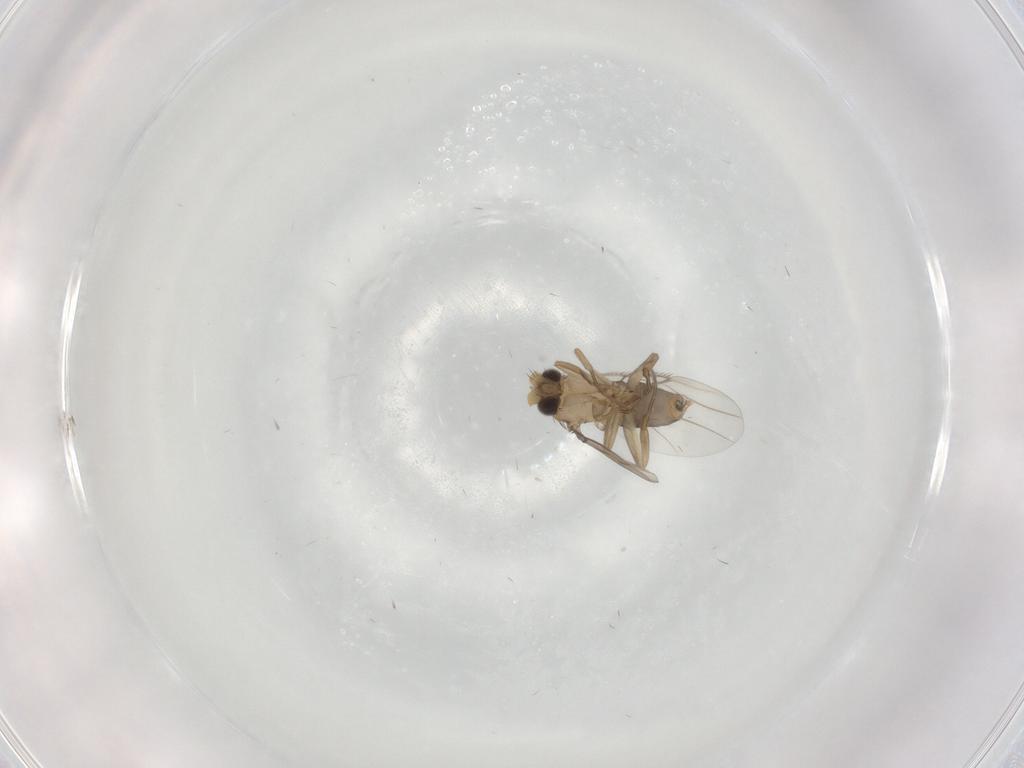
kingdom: Animalia
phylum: Arthropoda
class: Insecta
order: Diptera
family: Phoridae
